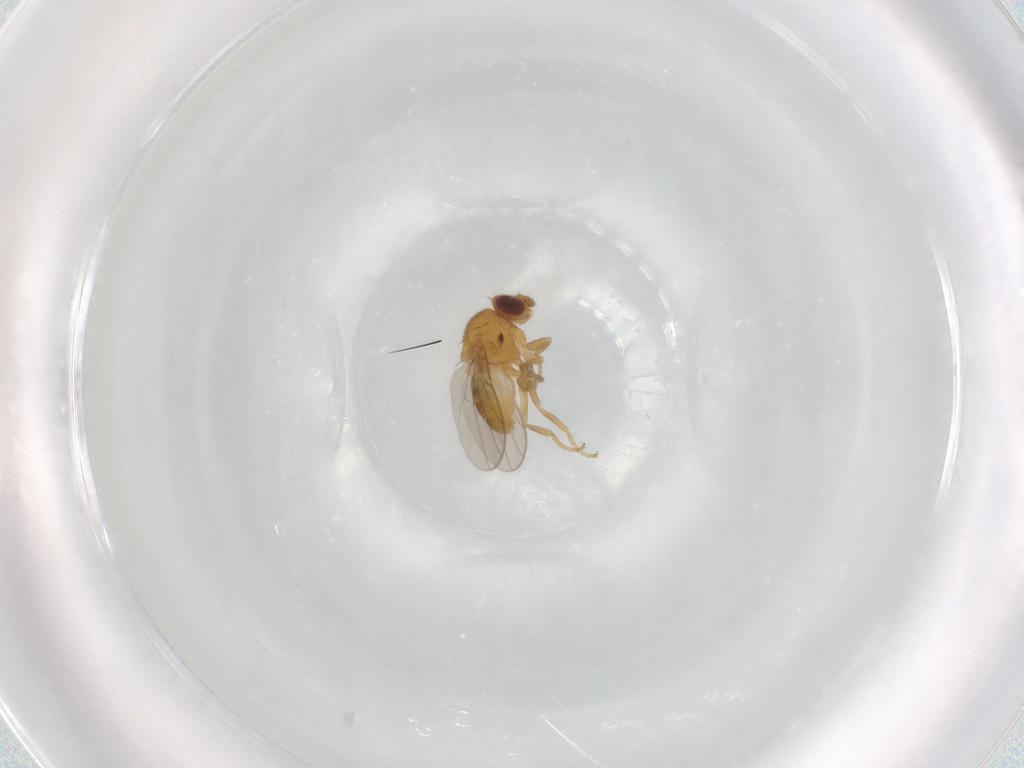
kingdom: Animalia
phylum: Arthropoda
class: Insecta
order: Diptera
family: Chloropidae
